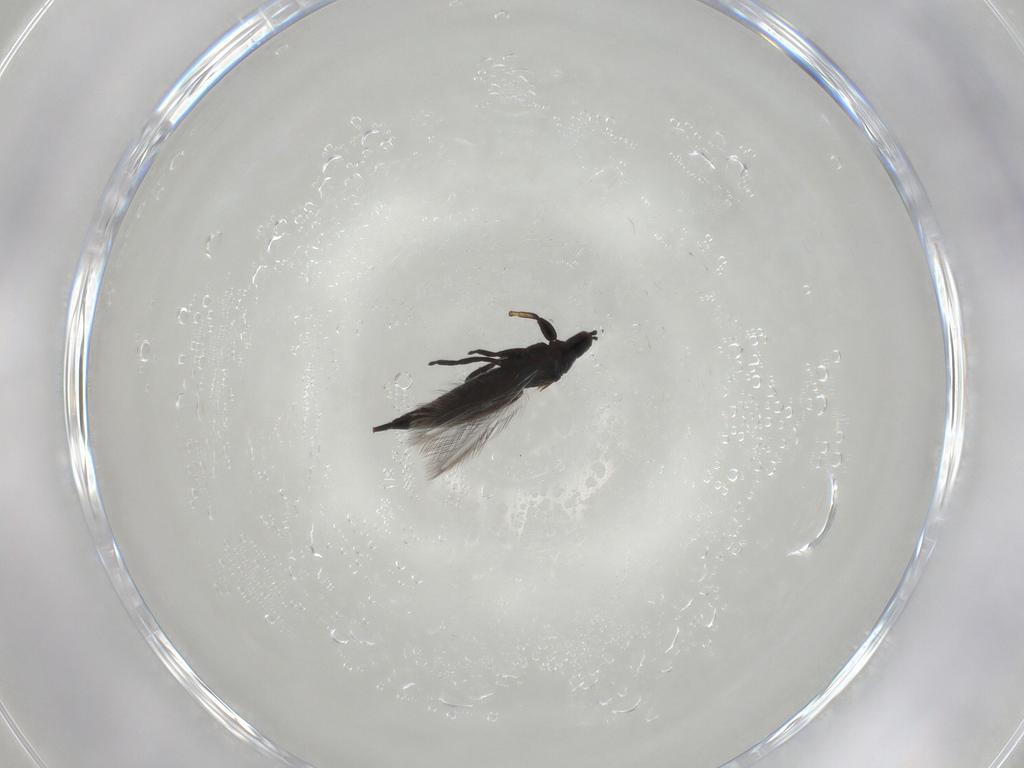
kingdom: Animalia
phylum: Arthropoda
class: Insecta
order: Thysanoptera
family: Phlaeothripidae
